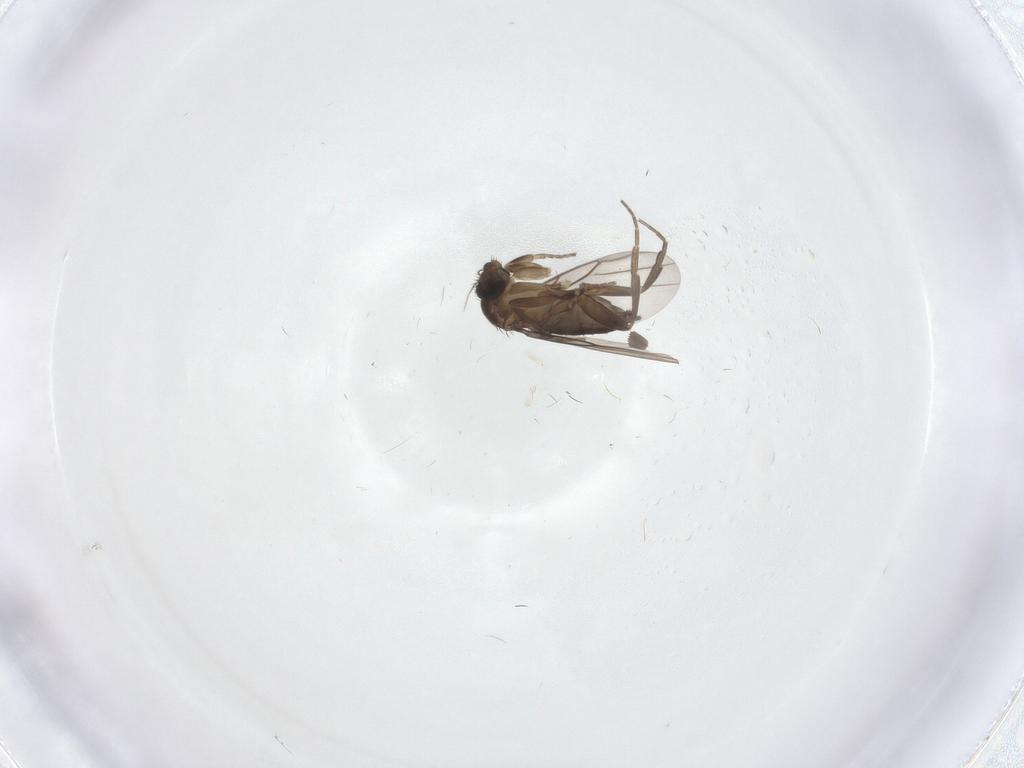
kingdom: Animalia
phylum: Arthropoda
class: Insecta
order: Diptera
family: Phoridae
